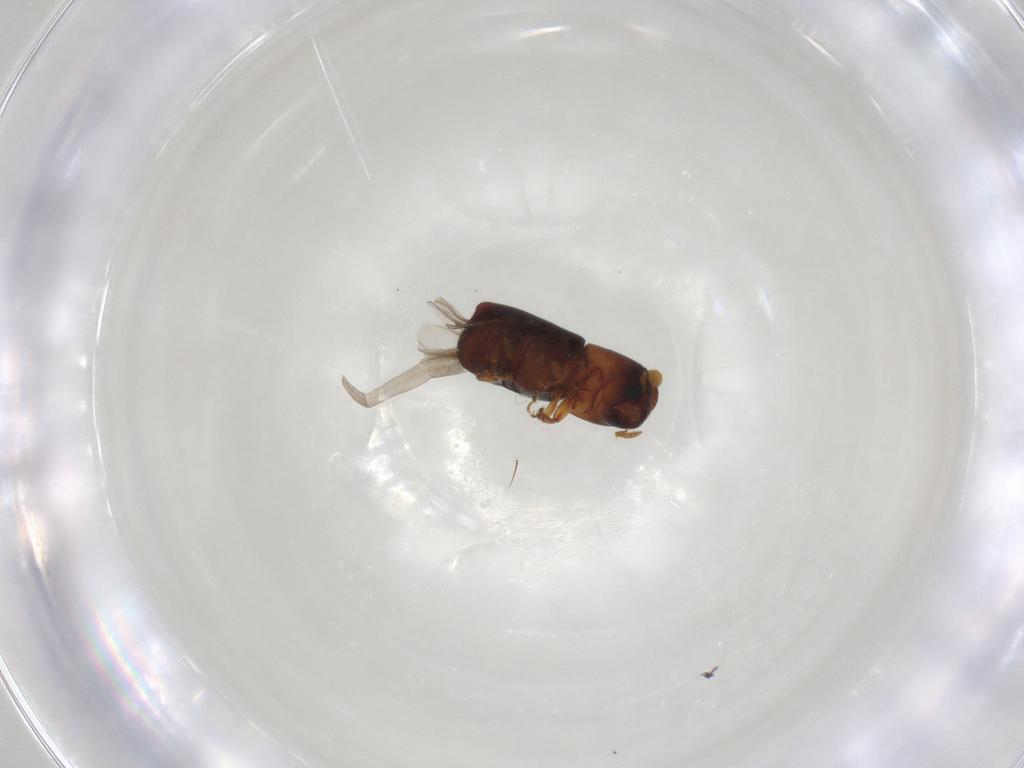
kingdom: Animalia
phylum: Arthropoda
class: Insecta
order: Coleoptera
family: Curculionidae
